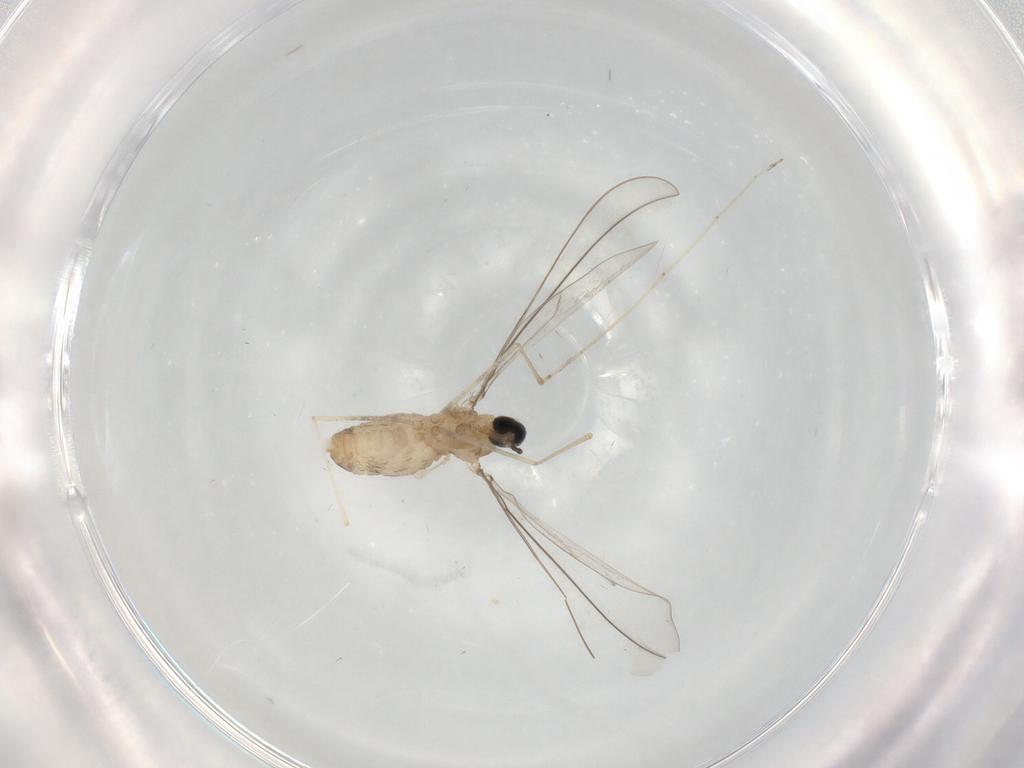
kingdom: Animalia
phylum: Arthropoda
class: Insecta
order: Diptera
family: Cecidomyiidae
